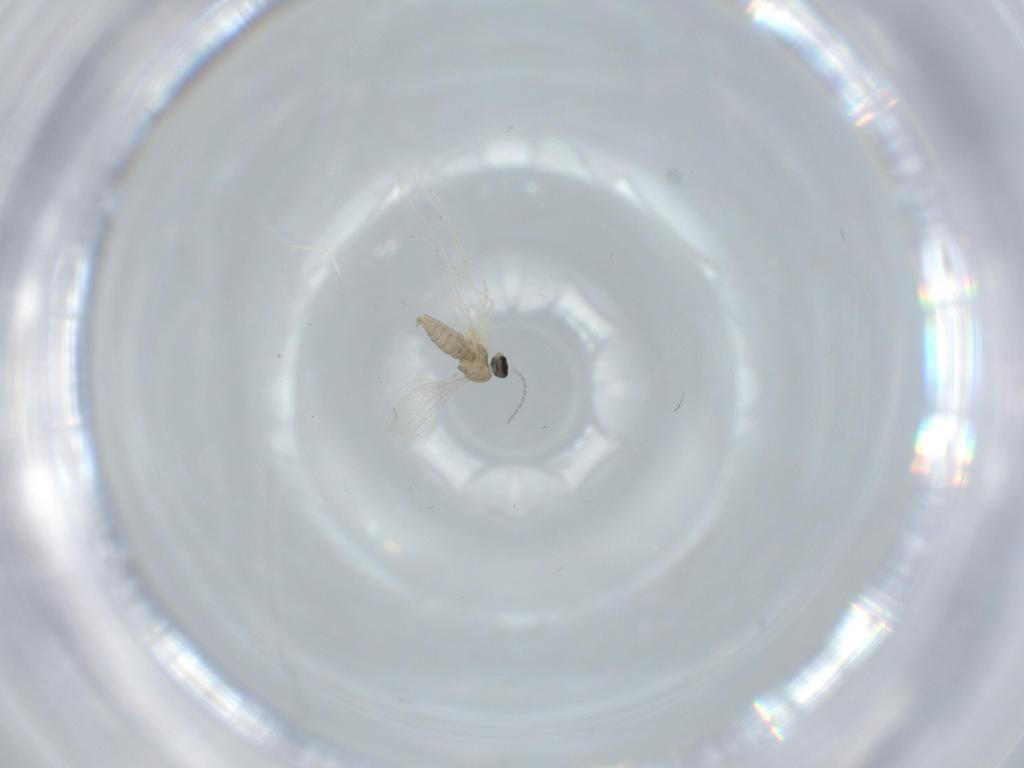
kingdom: Animalia
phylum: Arthropoda
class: Insecta
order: Diptera
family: Cecidomyiidae
